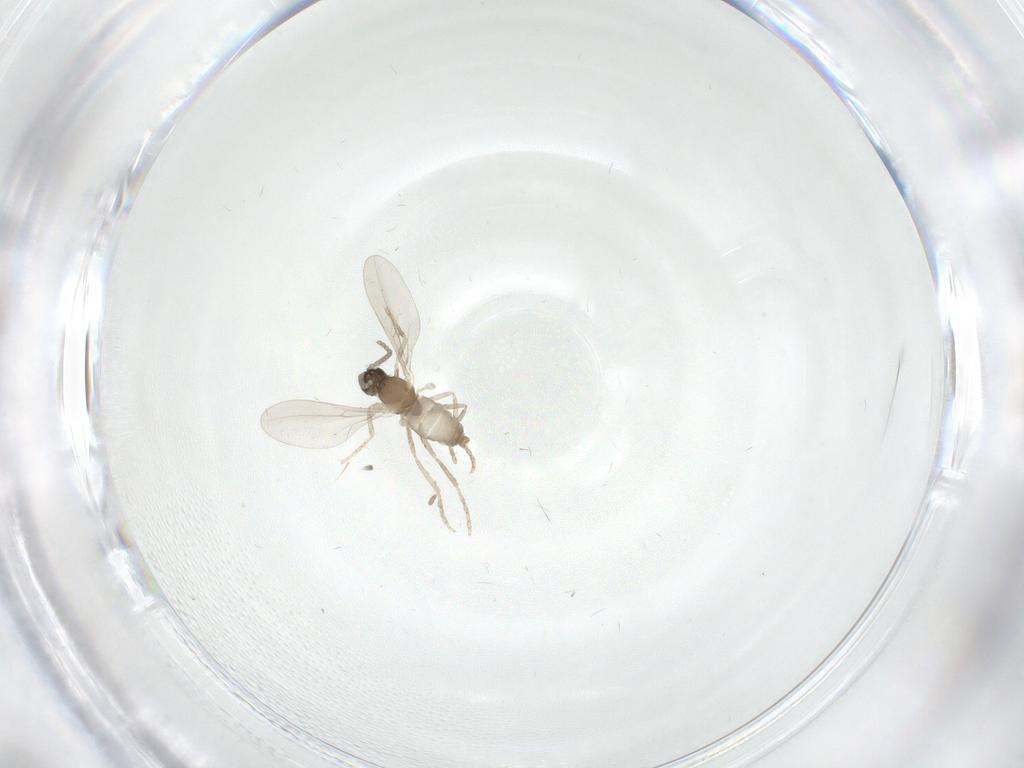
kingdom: Animalia
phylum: Arthropoda
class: Insecta
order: Diptera
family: Cecidomyiidae
